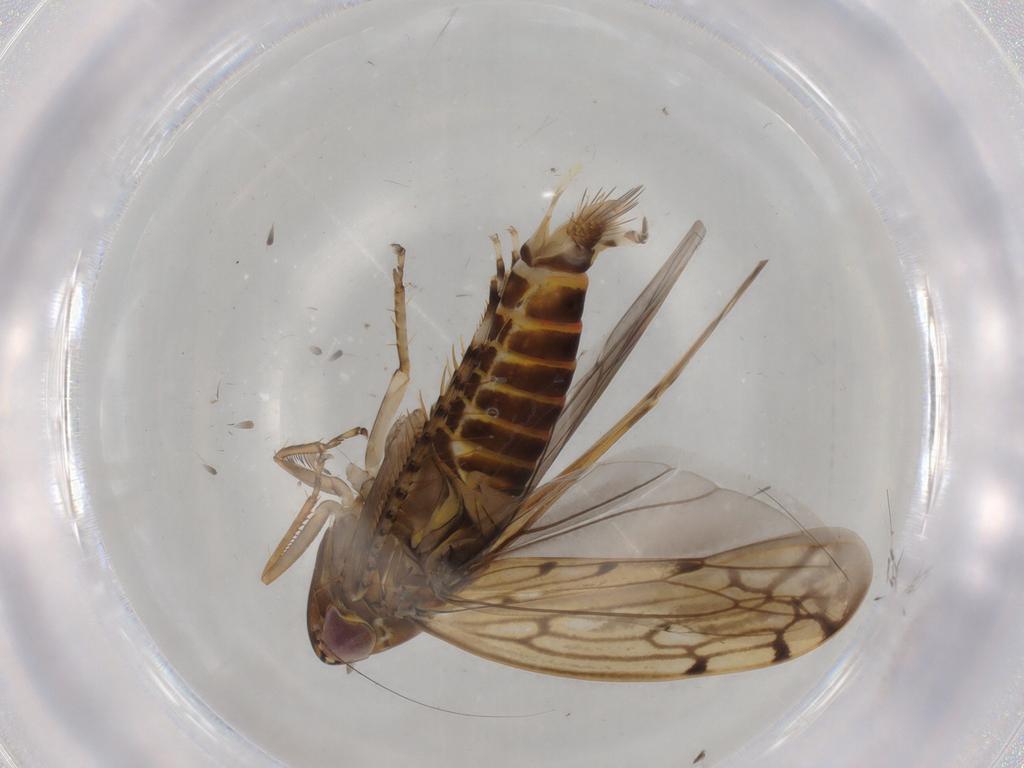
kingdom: Animalia
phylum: Arthropoda
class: Insecta
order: Hemiptera
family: Cicadellidae
